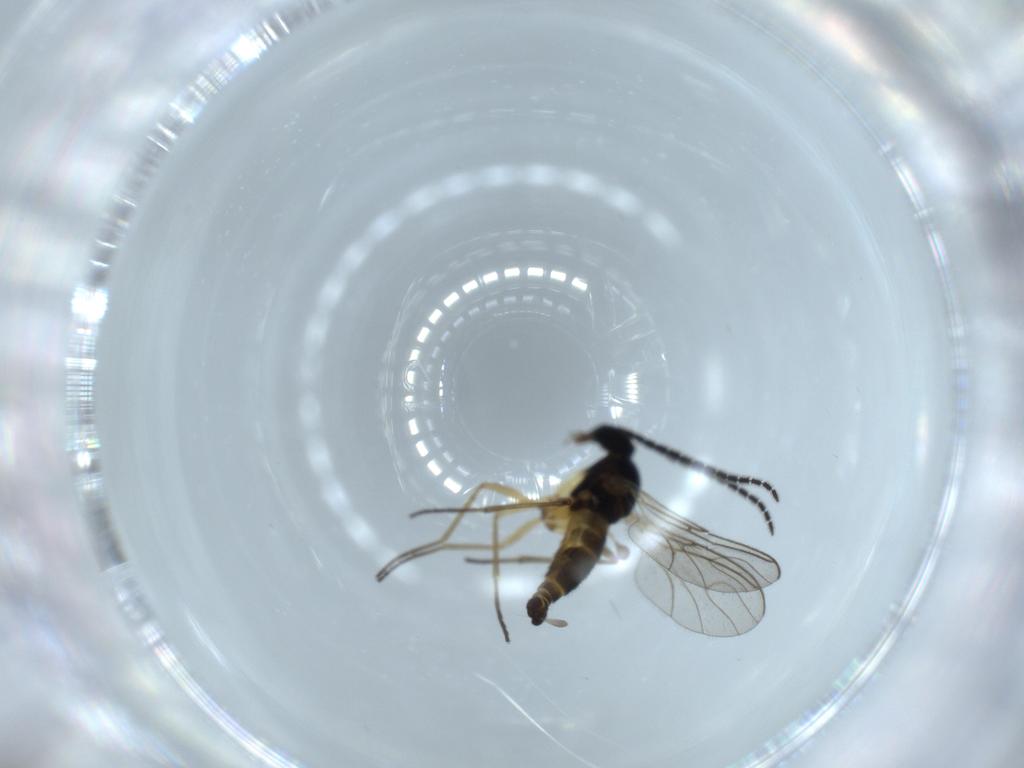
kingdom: Animalia
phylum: Arthropoda
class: Insecta
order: Diptera
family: Sciaridae
